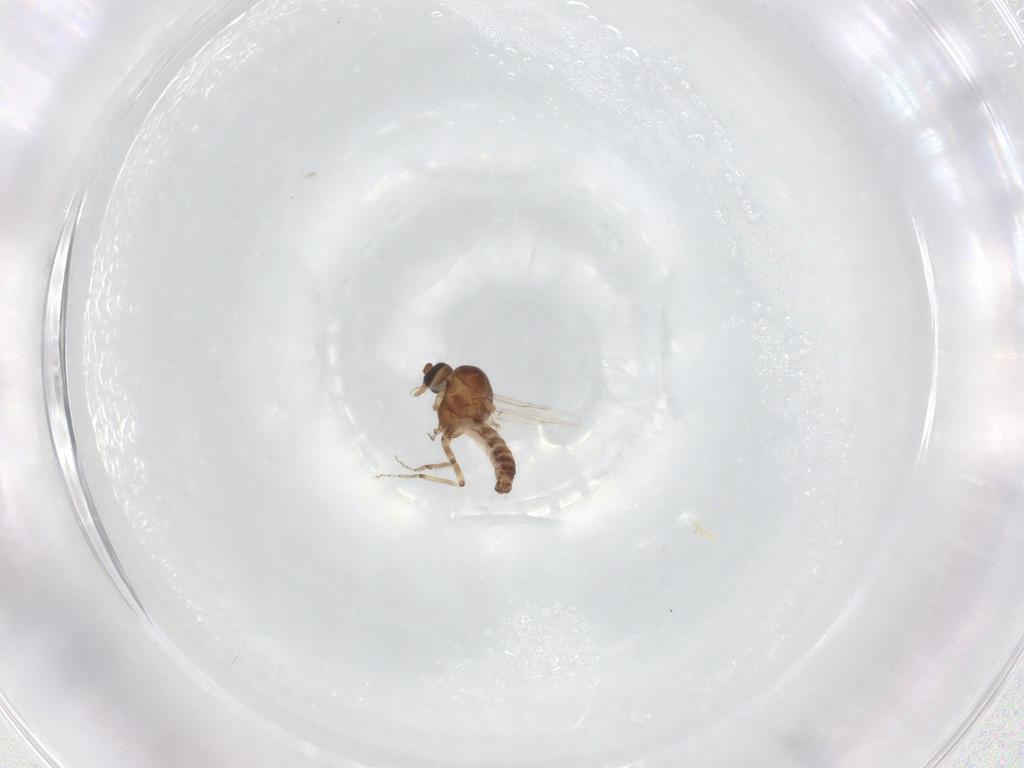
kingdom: Animalia
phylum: Arthropoda
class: Insecta
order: Diptera
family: Ceratopogonidae
